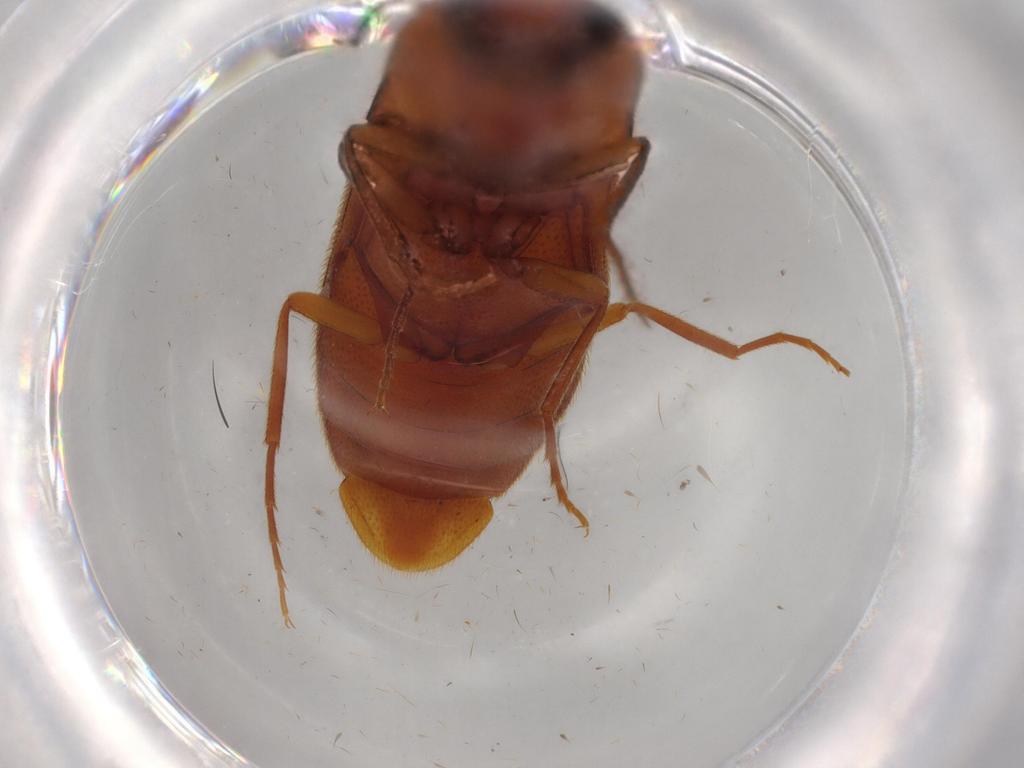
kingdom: Animalia
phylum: Arthropoda
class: Insecta
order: Coleoptera
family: Elateridae
